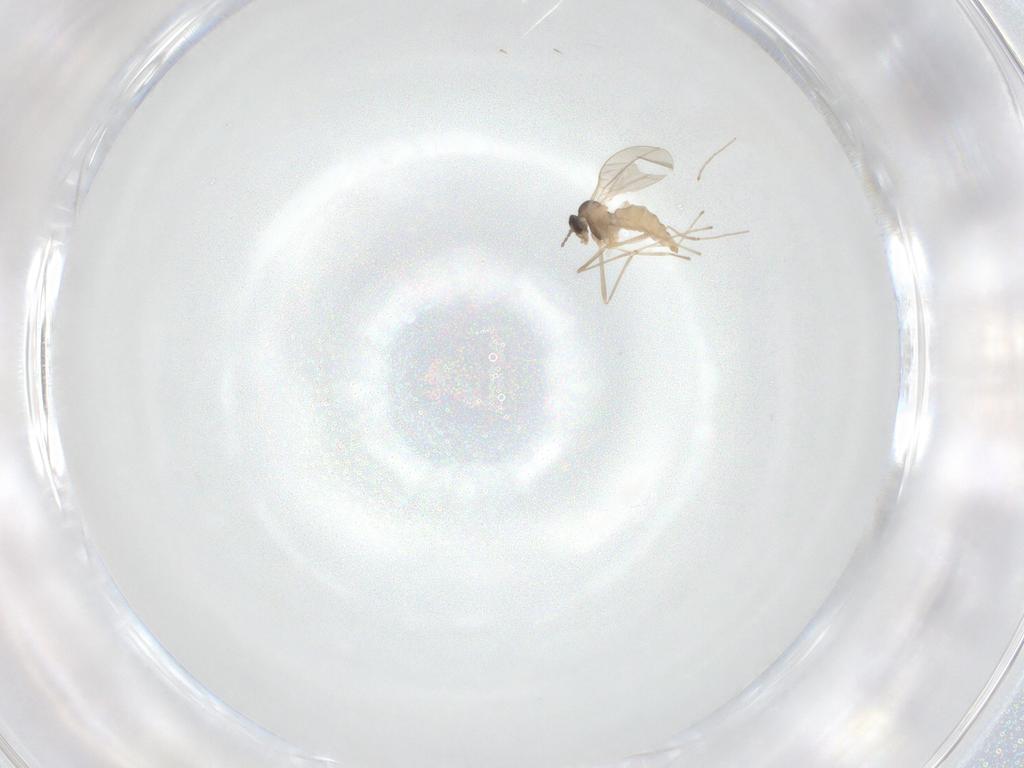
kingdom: Animalia
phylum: Arthropoda
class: Insecta
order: Diptera
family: Cecidomyiidae
